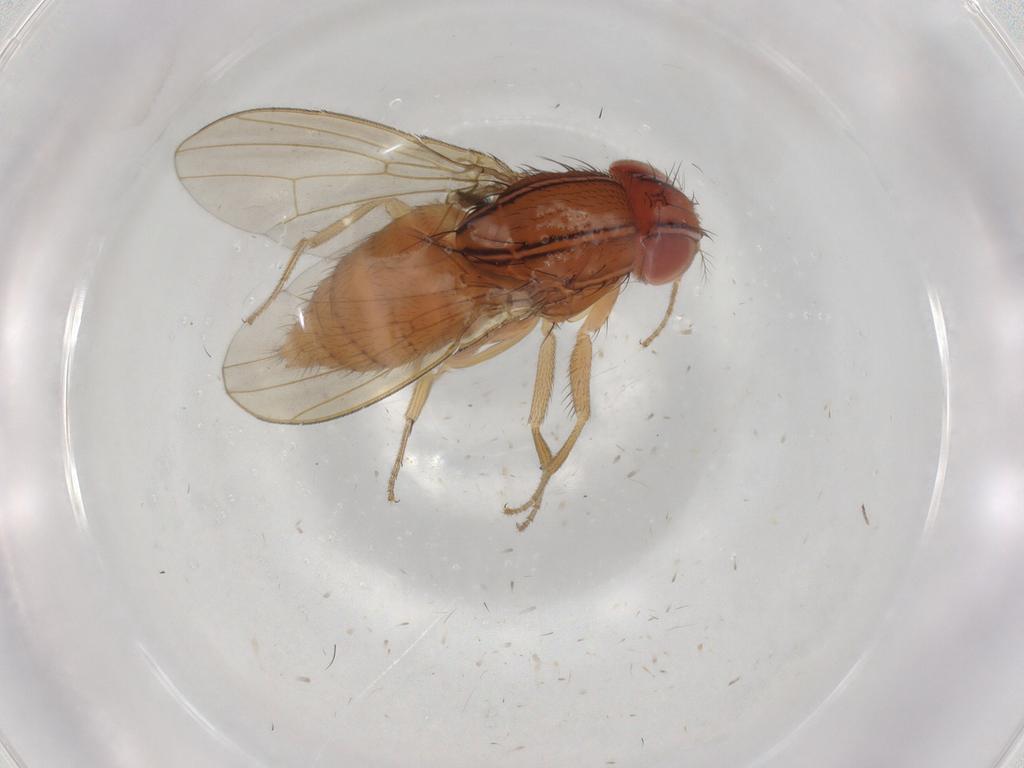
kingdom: Animalia
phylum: Arthropoda
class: Insecta
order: Diptera
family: Drosophilidae
